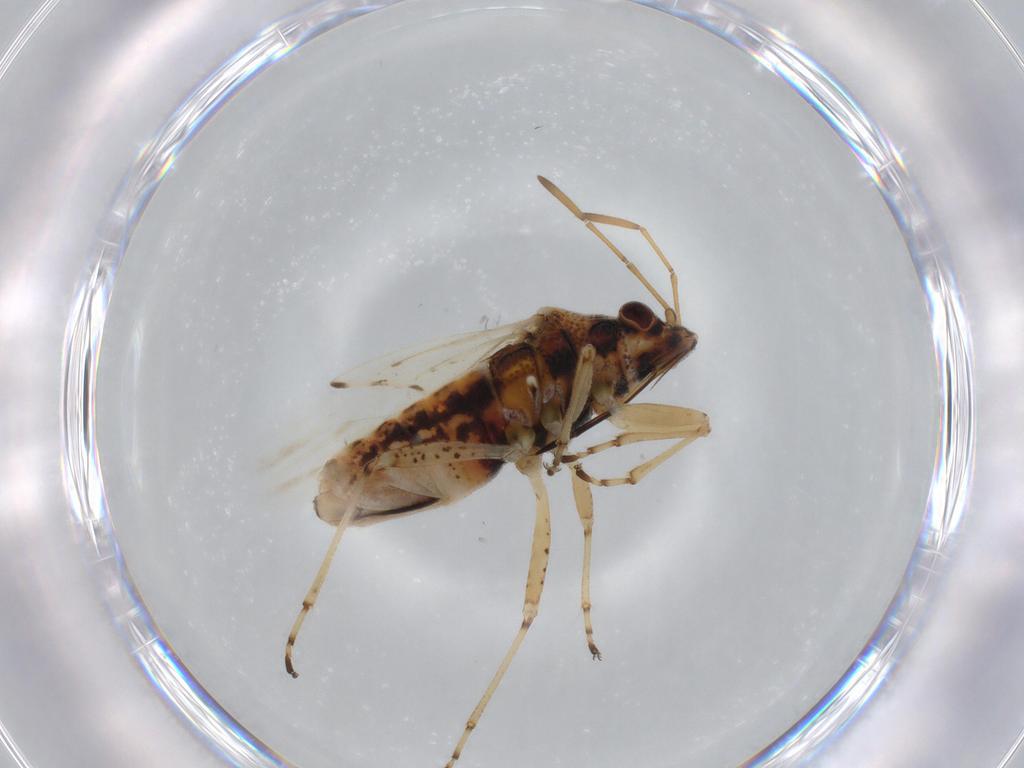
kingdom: Animalia
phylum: Arthropoda
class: Insecta
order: Hemiptera
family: Lygaeidae
